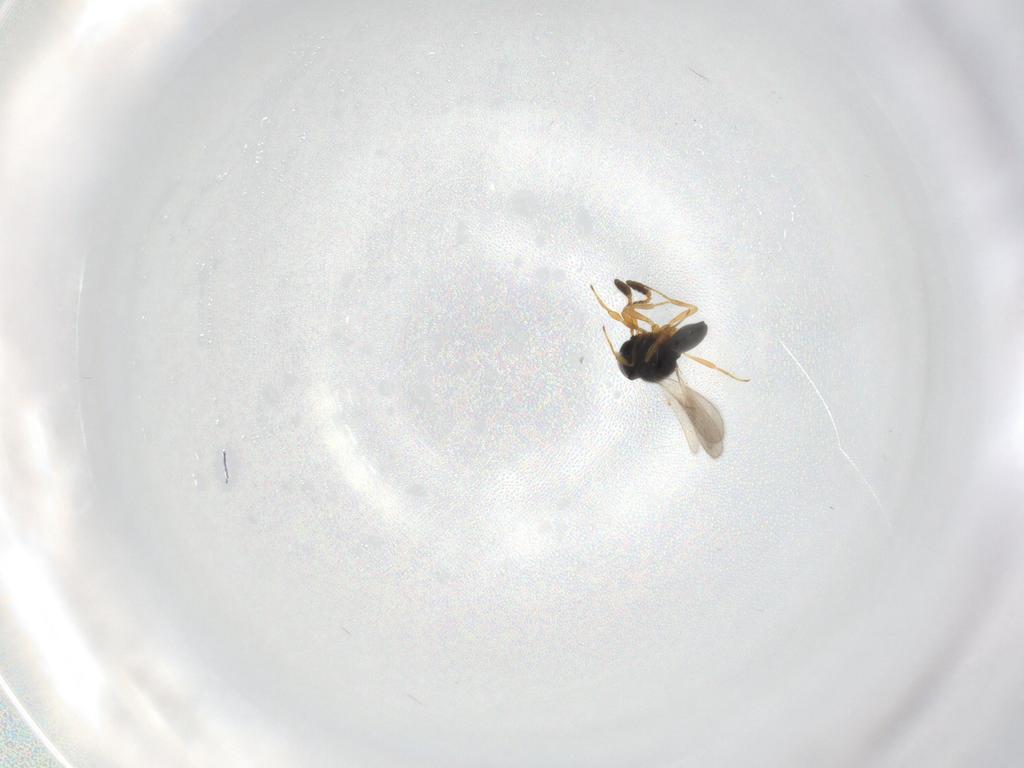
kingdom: Animalia
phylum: Arthropoda
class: Insecta
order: Hymenoptera
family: Scelionidae
